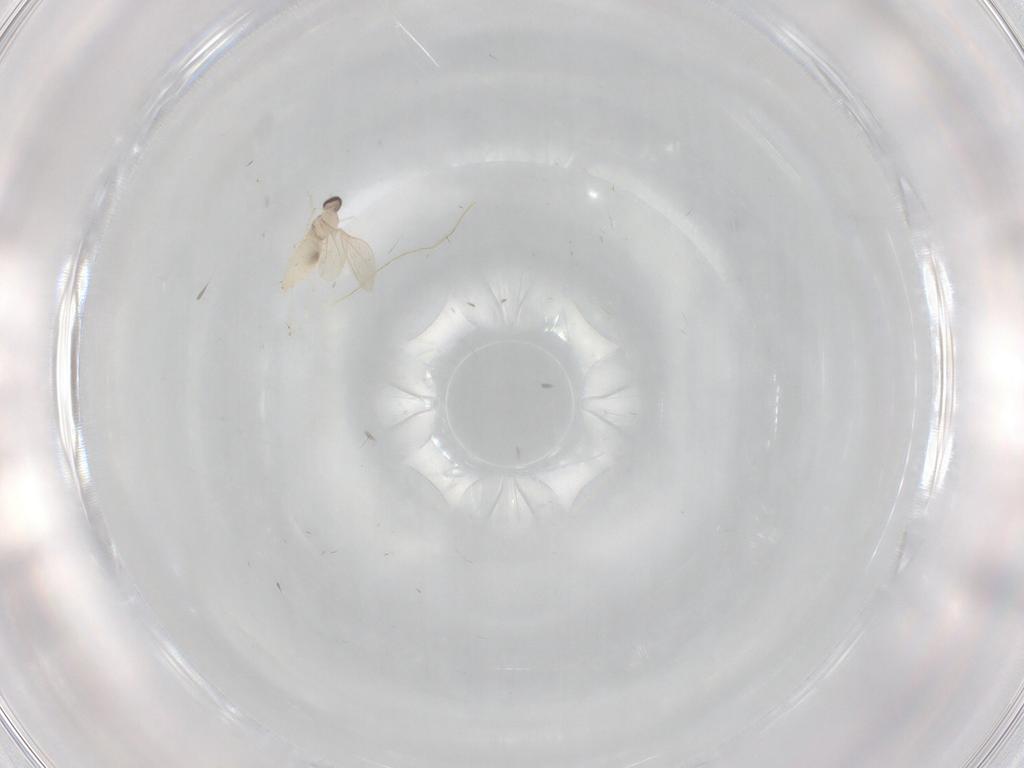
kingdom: Animalia
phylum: Arthropoda
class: Insecta
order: Diptera
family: Cecidomyiidae
